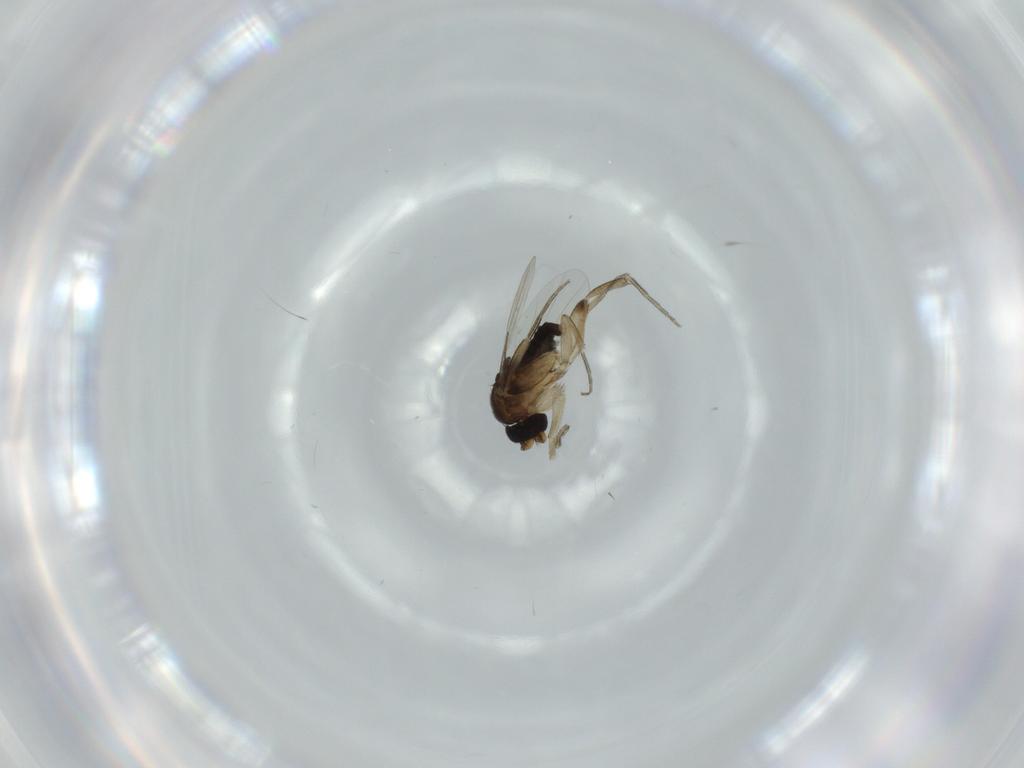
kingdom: Animalia
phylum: Arthropoda
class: Insecta
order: Diptera
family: Phoridae
